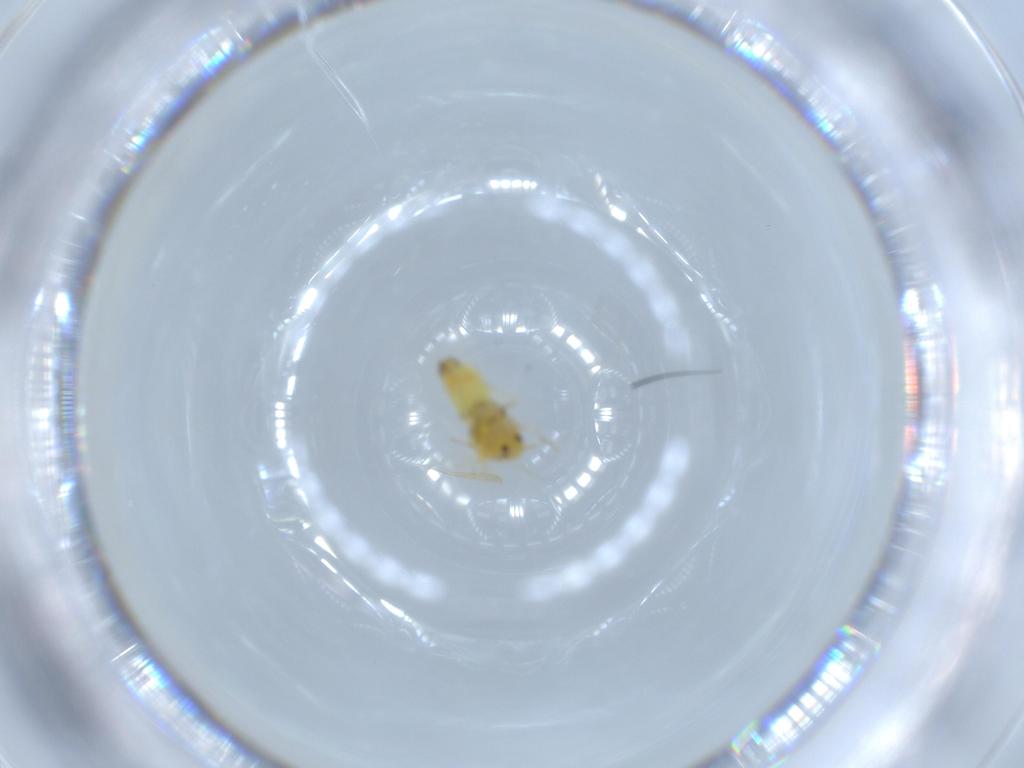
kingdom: Animalia
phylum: Arthropoda
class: Insecta
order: Hemiptera
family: Aleyrodidae
